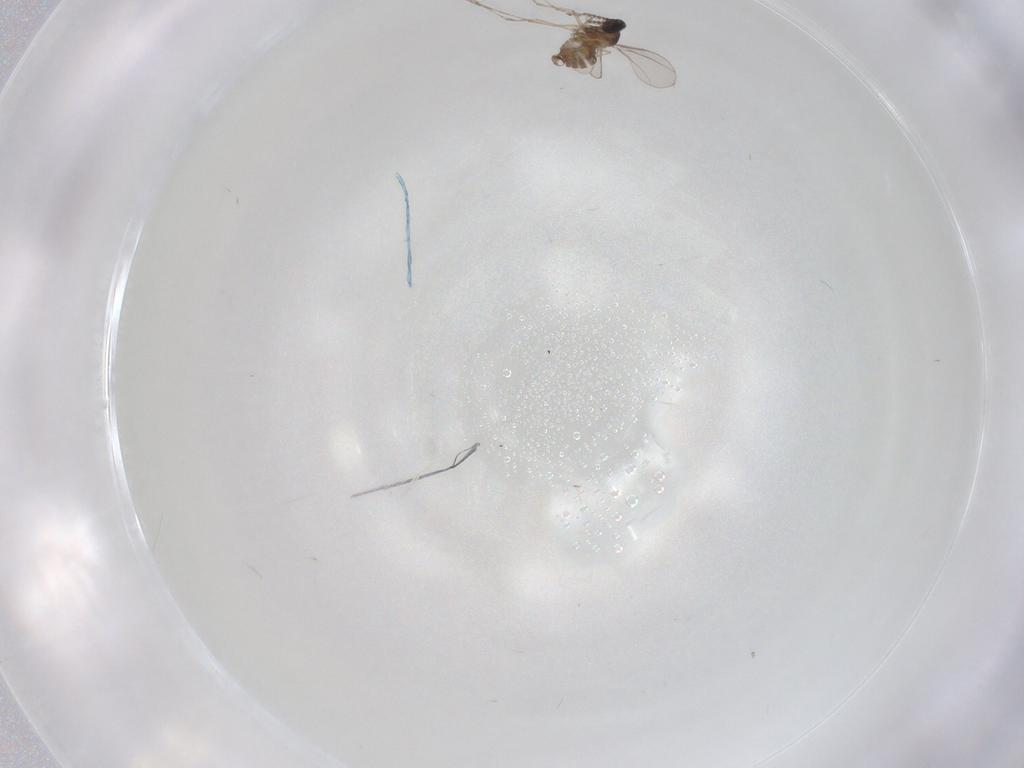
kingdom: Animalia
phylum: Arthropoda
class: Insecta
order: Diptera
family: Cecidomyiidae
